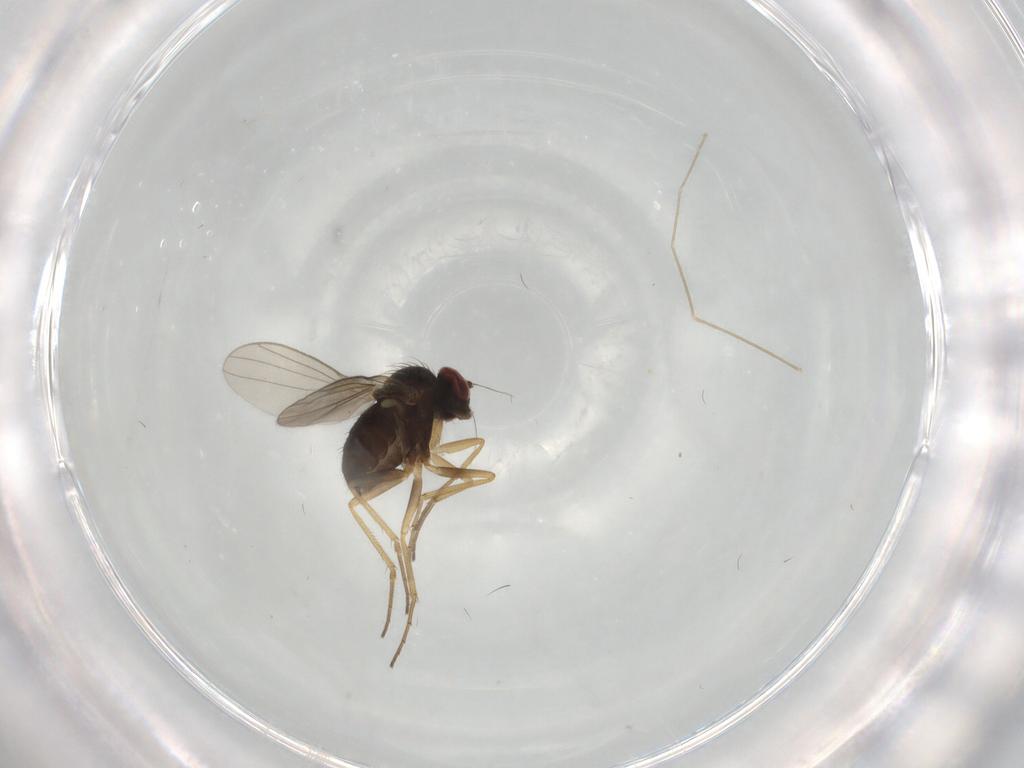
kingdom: Animalia
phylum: Arthropoda
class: Insecta
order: Diptera
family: Dolichopodidae
